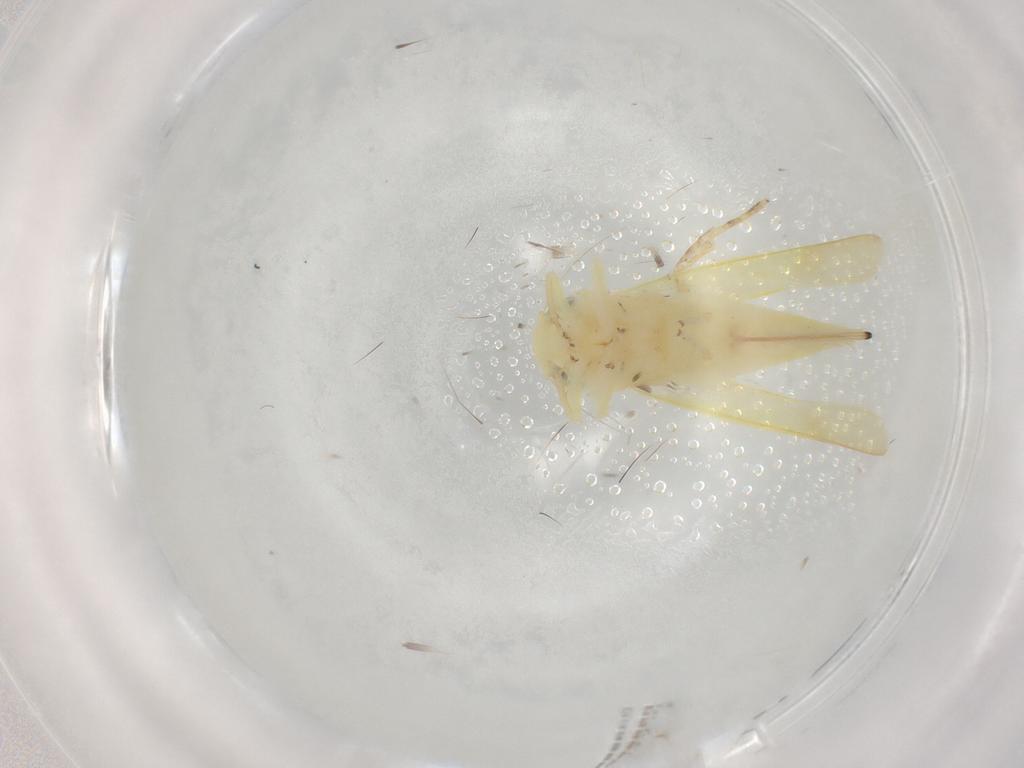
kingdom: Animalia
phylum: Arthropoda
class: Insecta
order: Hemiptera
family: Cicadellidae
